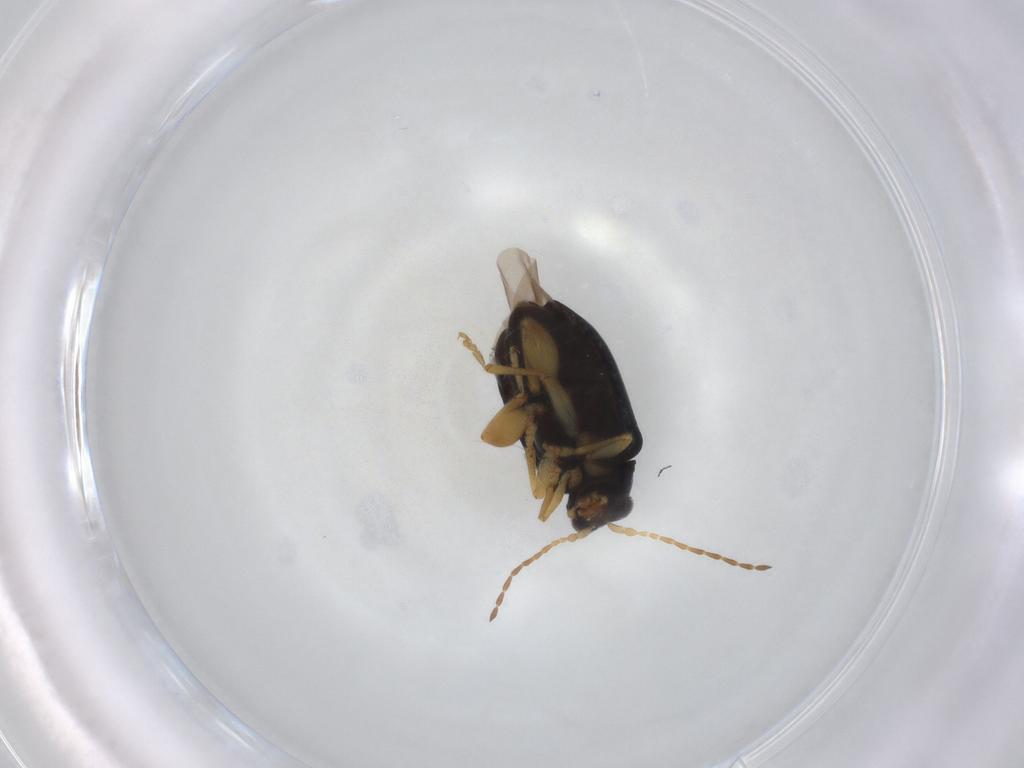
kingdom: Animalia
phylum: Arthropoda
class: Insecta
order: Coleoptera
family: Chrysomelidae
